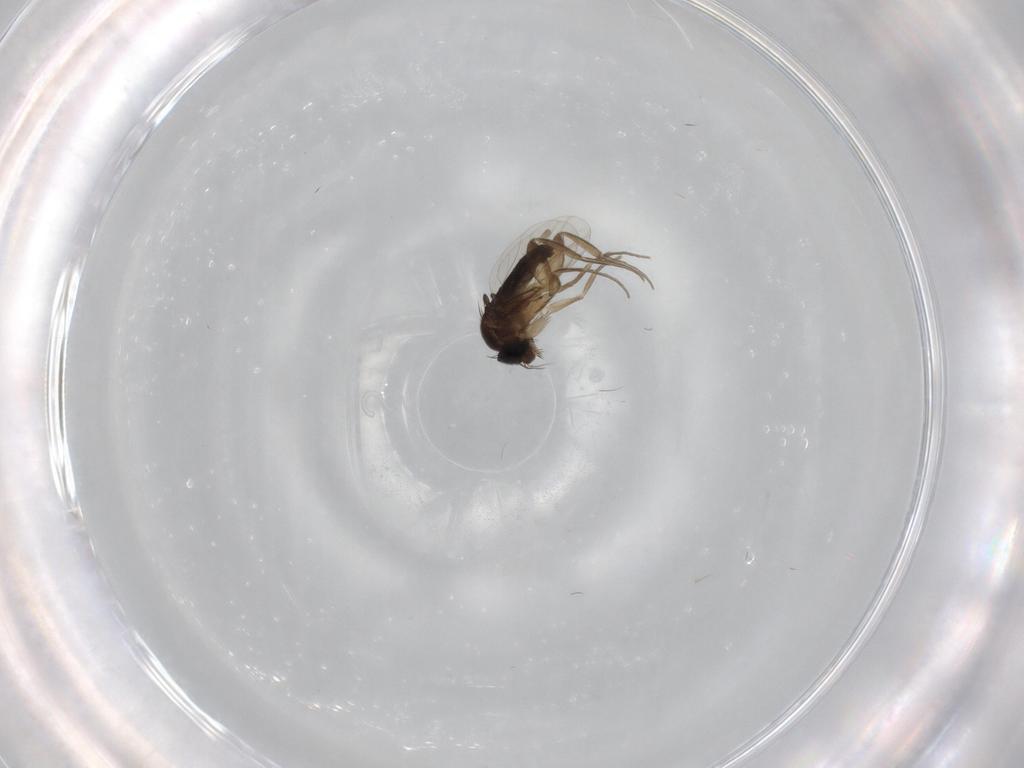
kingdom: Animalia
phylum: Arthropoda
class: Insecta
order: Diptera
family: Phoridae
